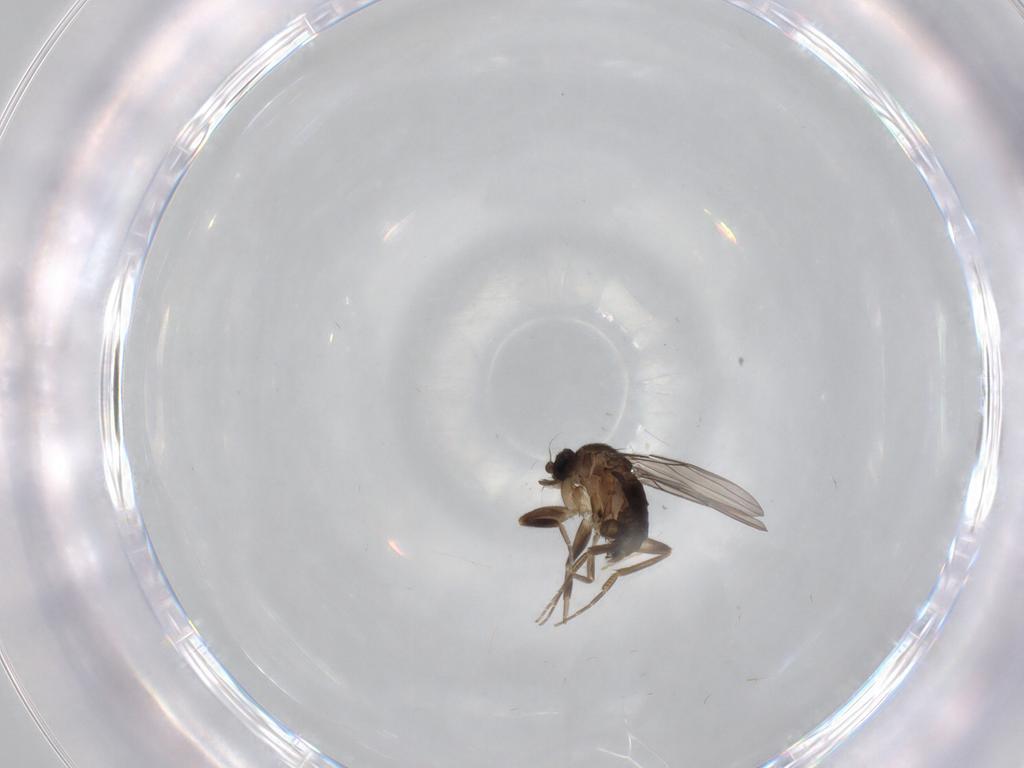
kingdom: Animalia
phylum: Arthropoda
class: Insecta
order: Diptera
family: Phoridae
